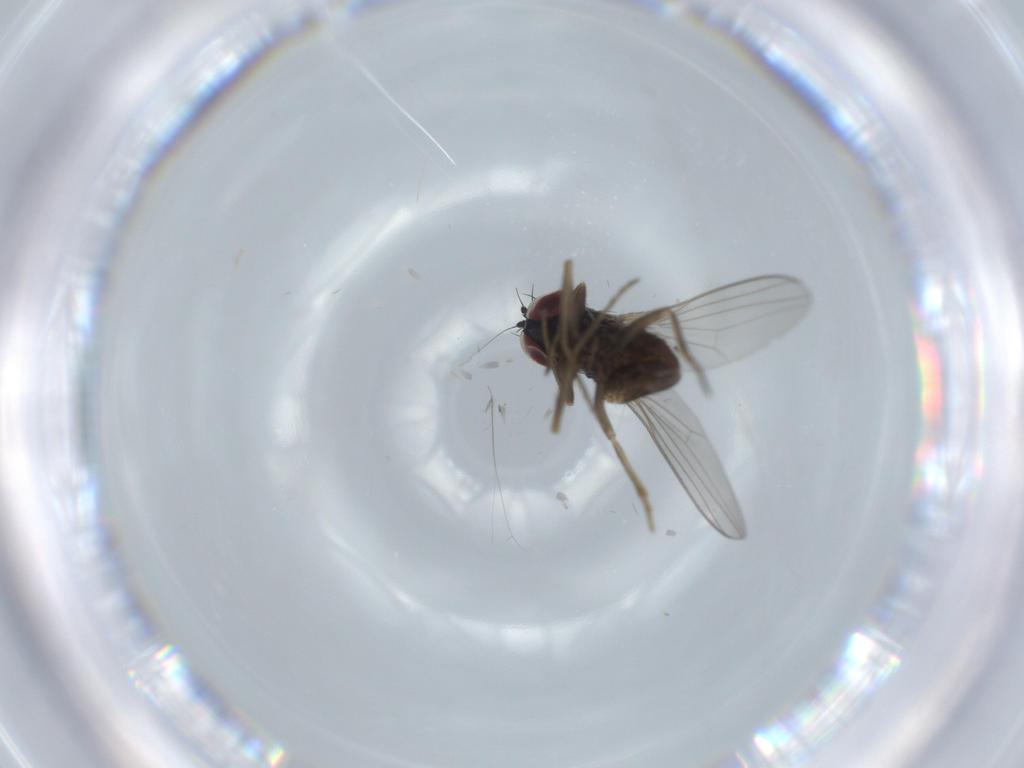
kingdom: Animalia
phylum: Arthropoda
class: Insecta
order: Diptera
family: Dolichopodidae
